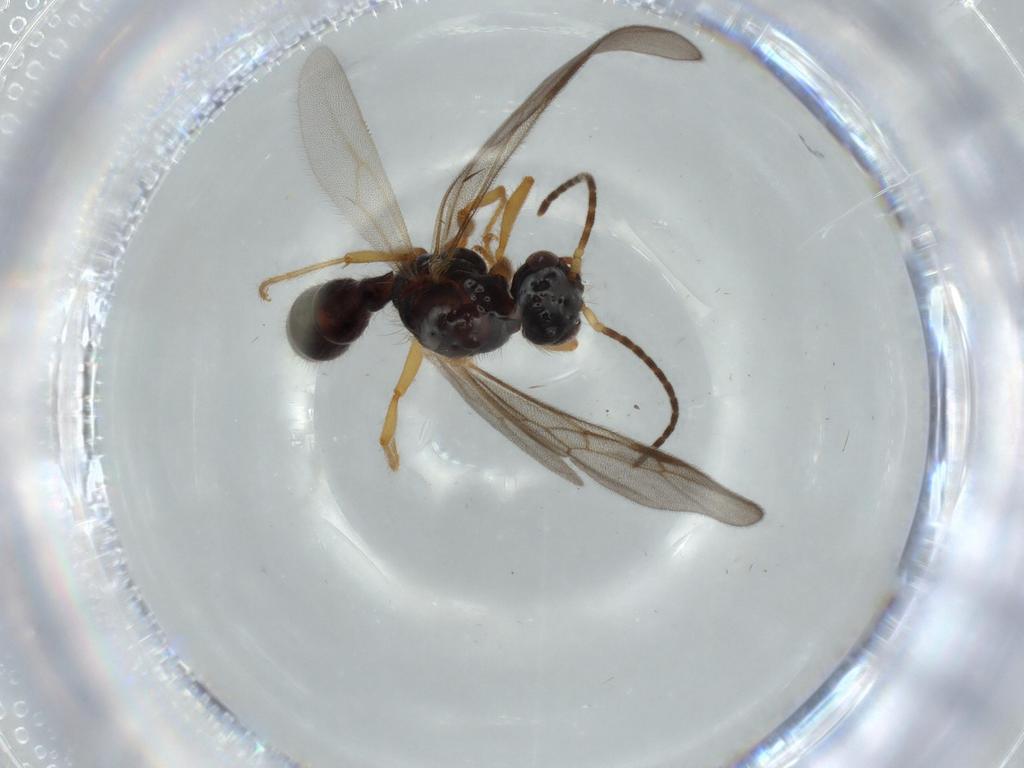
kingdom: Animalia
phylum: Arthropoda
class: Insecta
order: Hymenoptera
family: Formicidae
